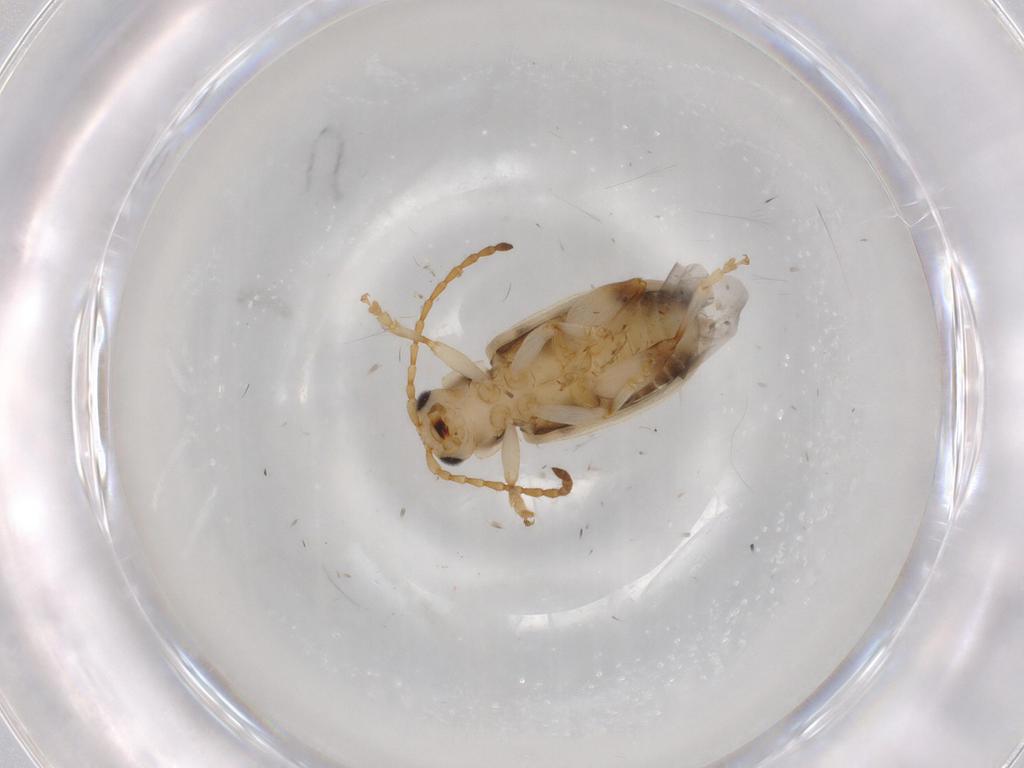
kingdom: Animalia
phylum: Arthropoda
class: Insecta
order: Coleoptera
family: Chrysomelidae
